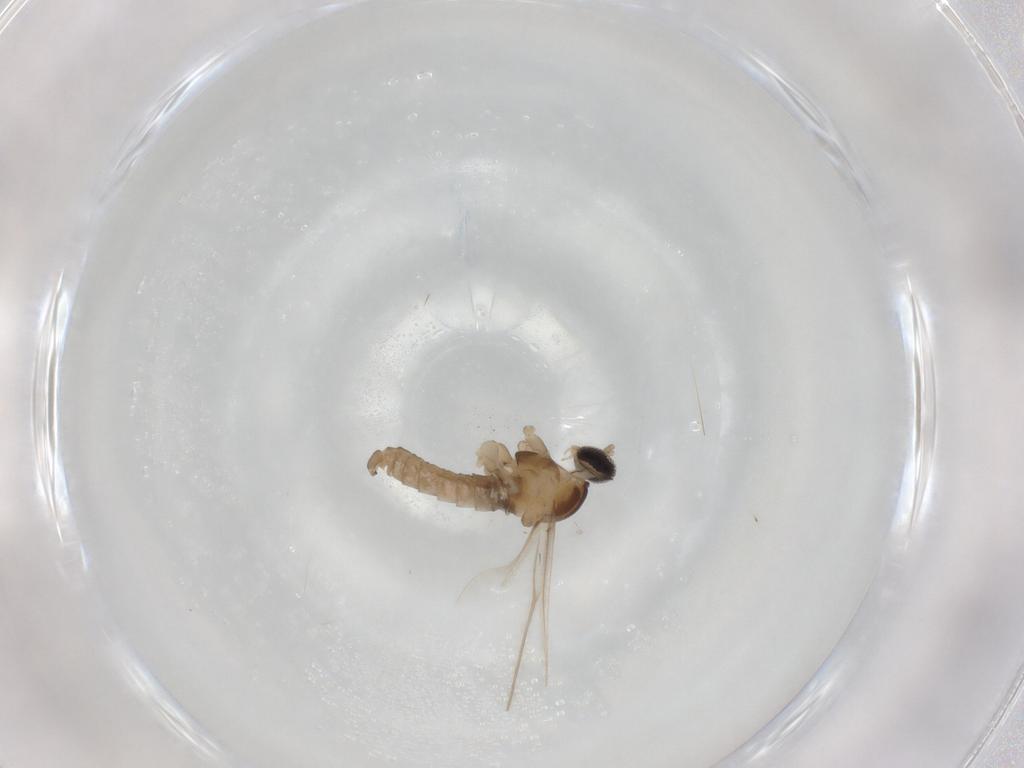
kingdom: Animalia
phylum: Arthropoda
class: Insecta
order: Diptera
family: Cecidomyiidae
